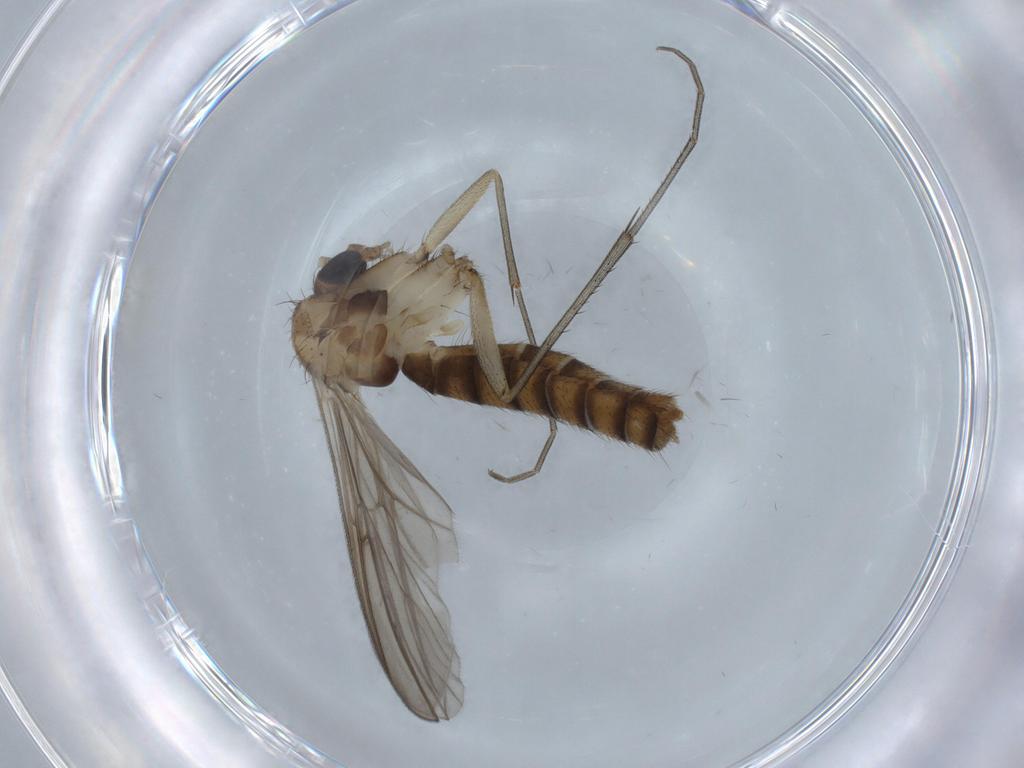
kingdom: Animalia
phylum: Arthropoda
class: Insecta
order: Diptera
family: Mycetophilidae
